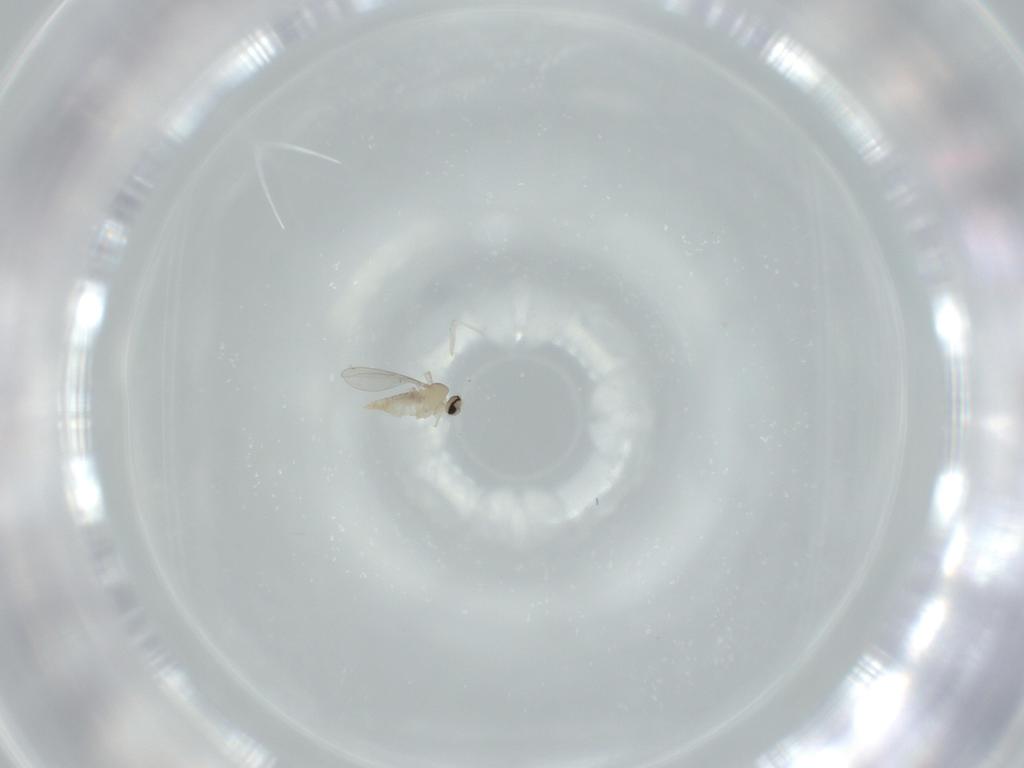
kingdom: Animalia
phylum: Arthropoda
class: Insecta
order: Diptera
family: Cecidomyiidae
